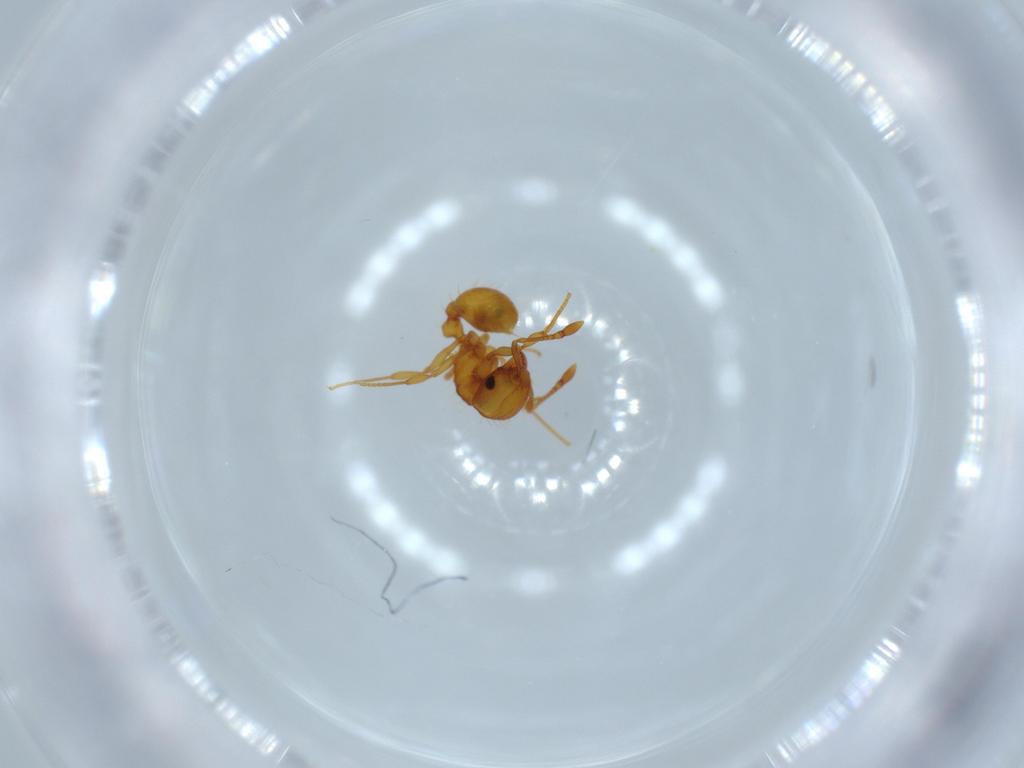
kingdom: Animalia
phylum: Arthropoda
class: Insecta
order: Hymenoptera
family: Formicidae
